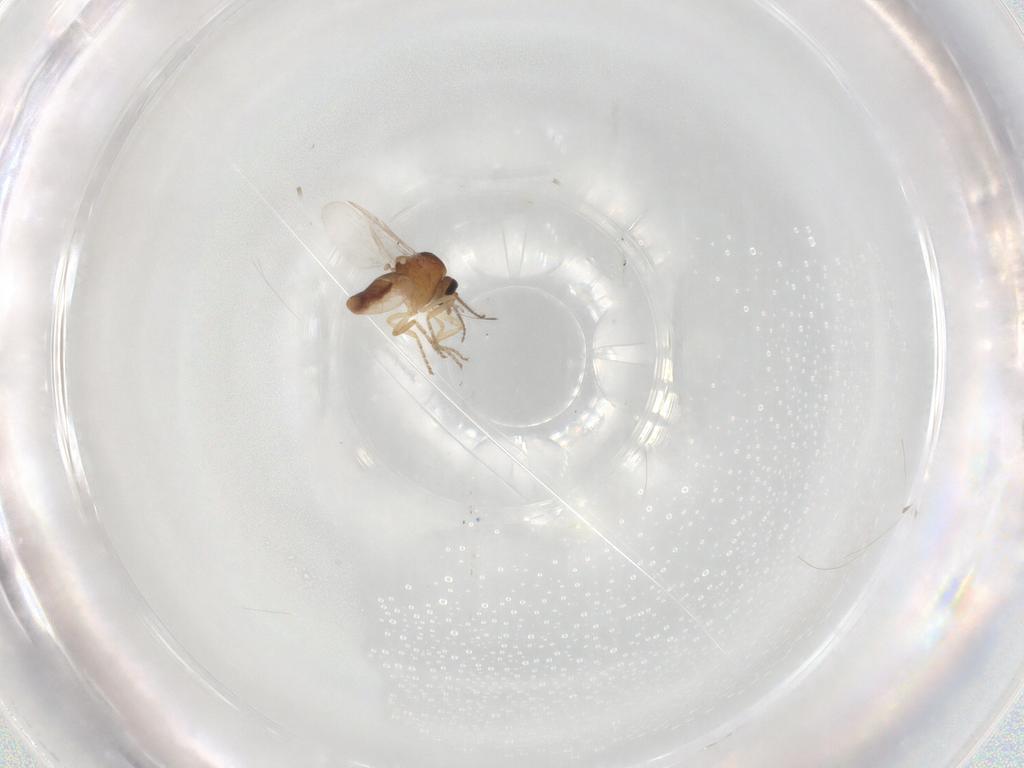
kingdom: Animalia
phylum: Arthropoda
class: Insecta
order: Diptera
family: Ceratopogonidae
